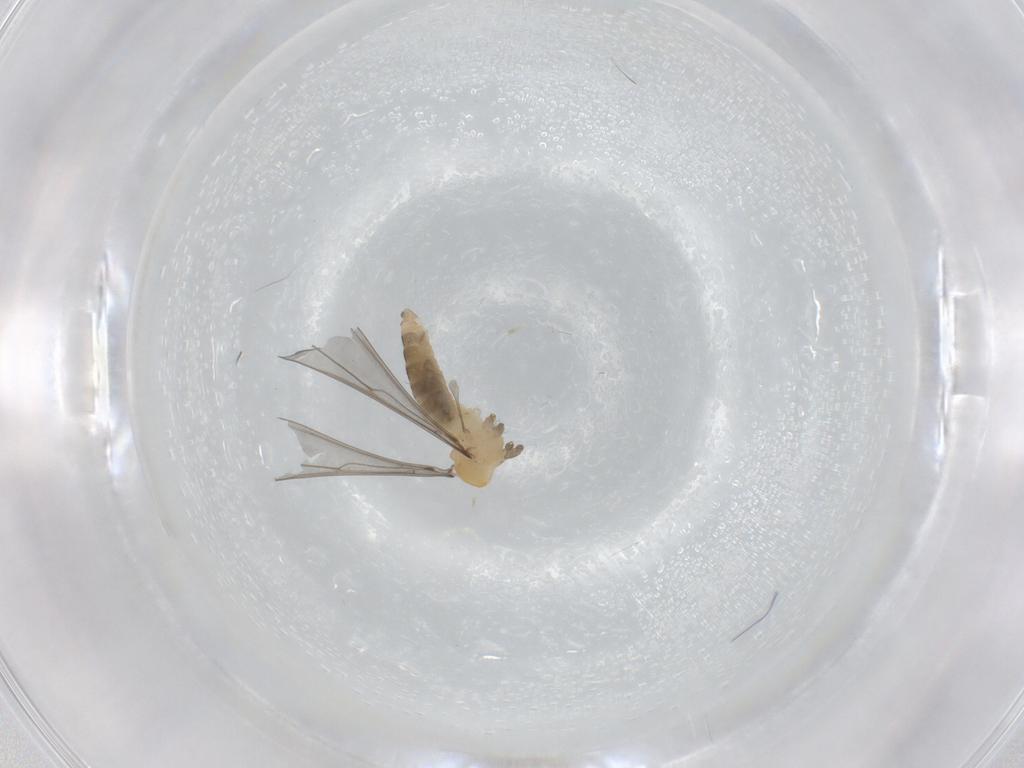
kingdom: Animalia
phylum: Arthropoda
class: Insecta
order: Diptera
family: Cecidomyiidae
